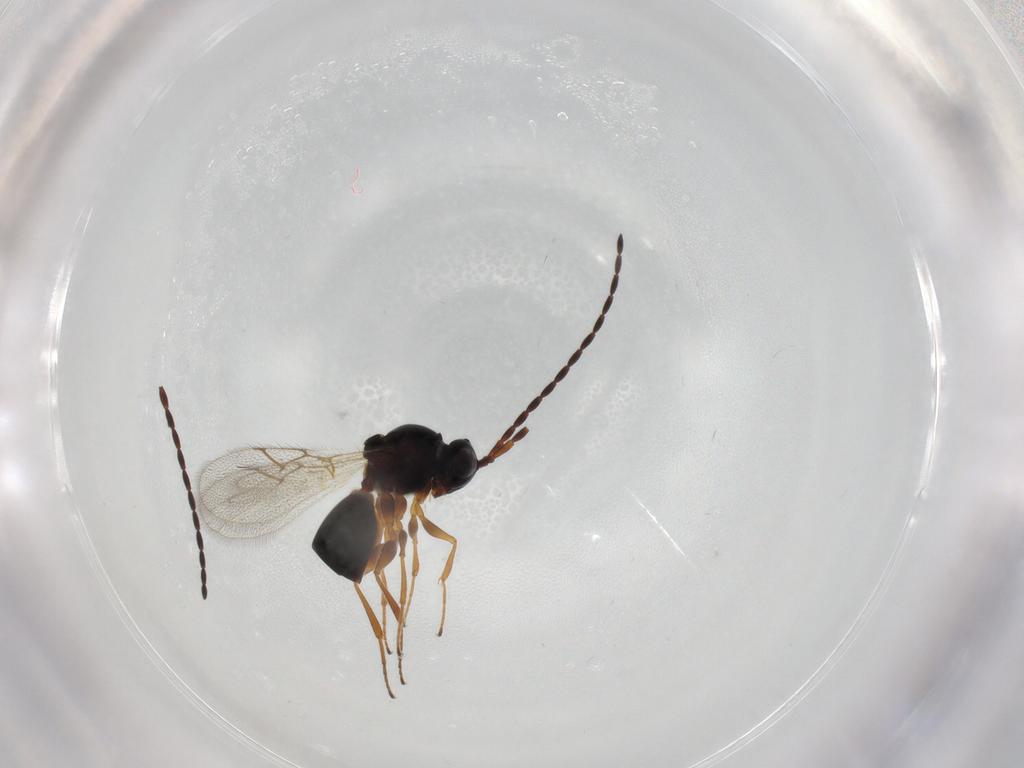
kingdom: Animalia
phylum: Arthropoda
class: Insecta
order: Hymenoptera
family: Figitidae
